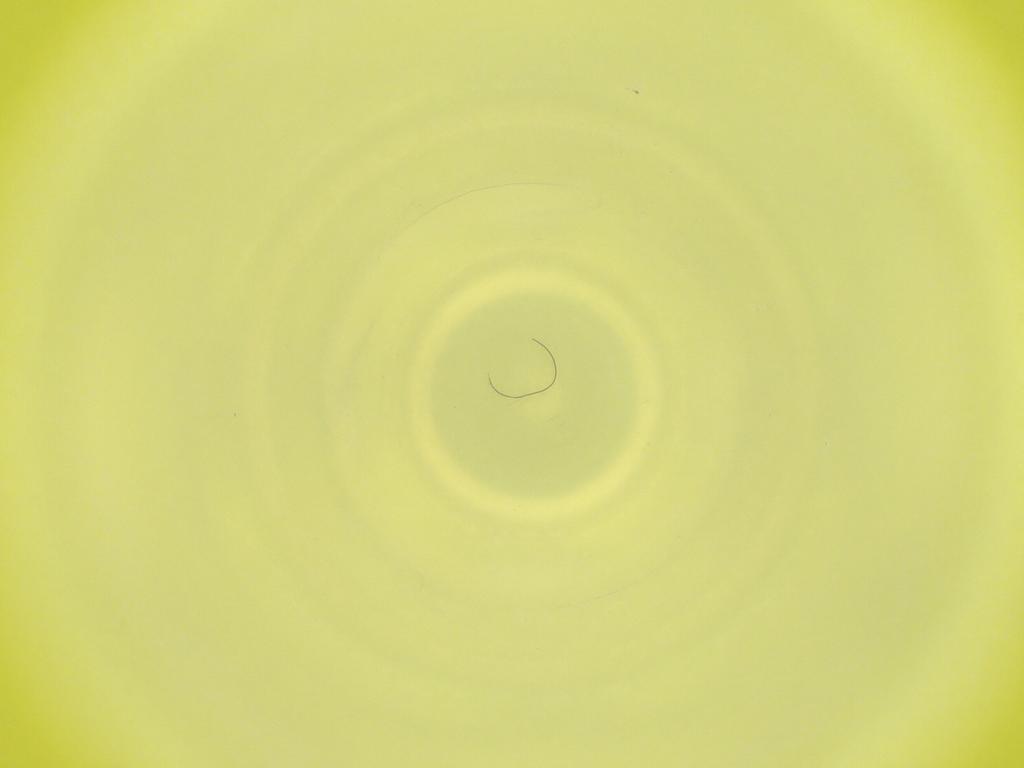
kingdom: Animalia
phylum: Arthropoda
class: Insecta
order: Diptera
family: Cecidomyiidae
